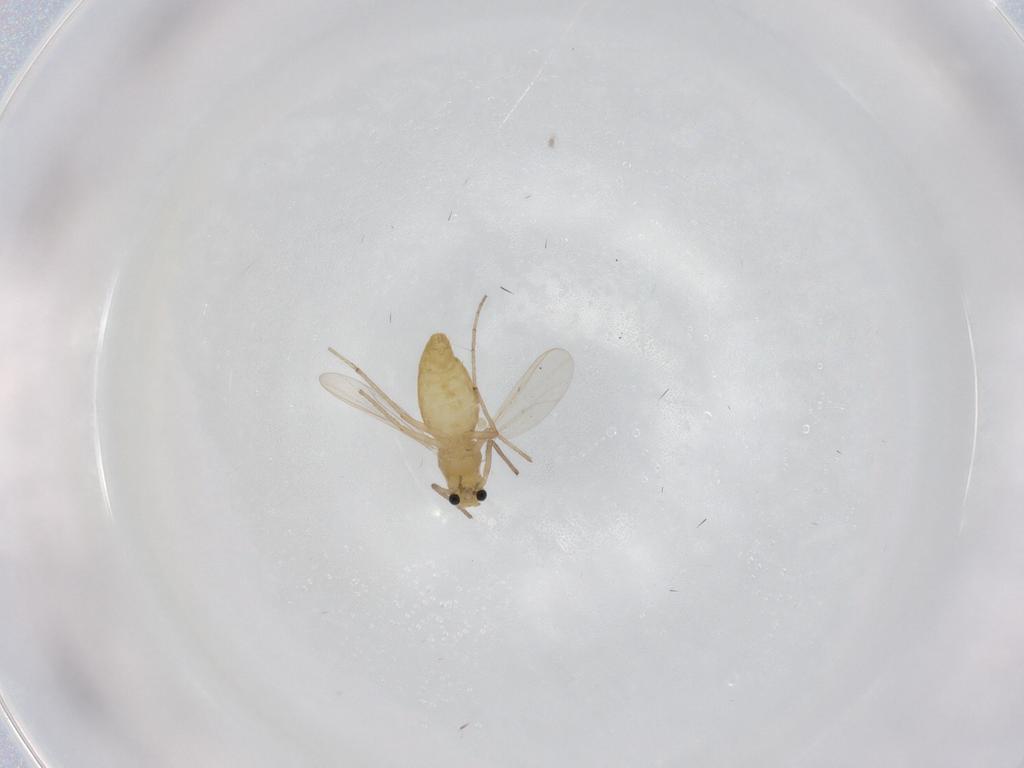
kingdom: Animalia
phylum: Arthropoda
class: Insecta
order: Diptera
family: Chironomidae
